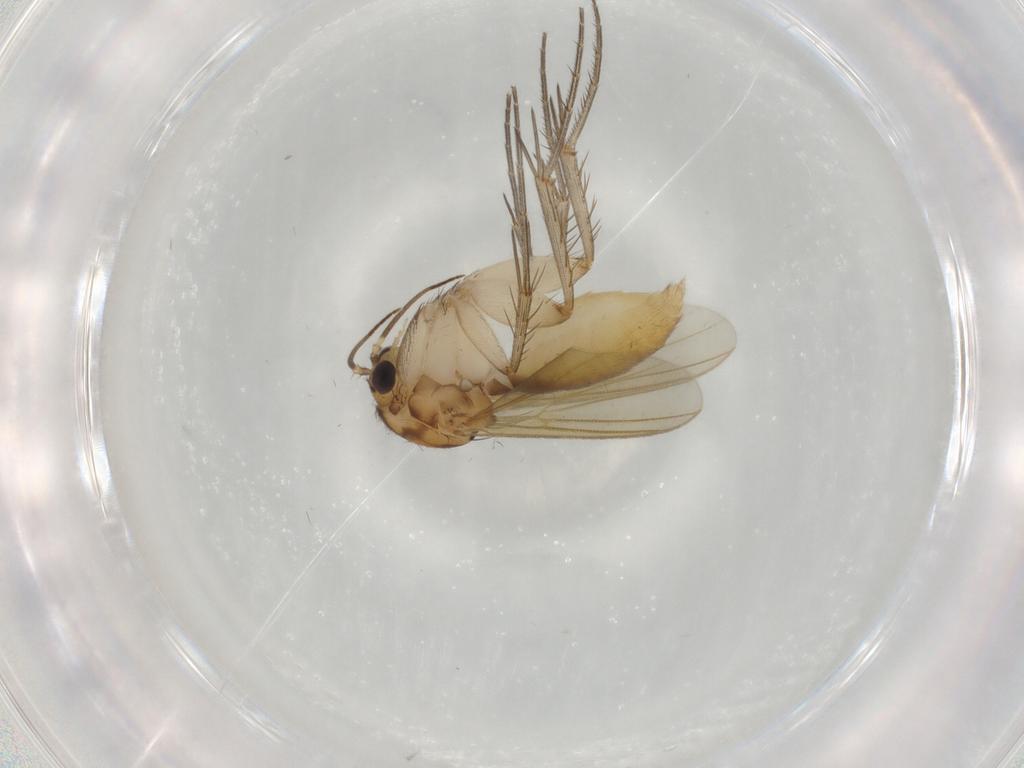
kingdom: Animalia
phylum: Arthropoda
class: Insecta
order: Diptera
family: Mycetophilidae
